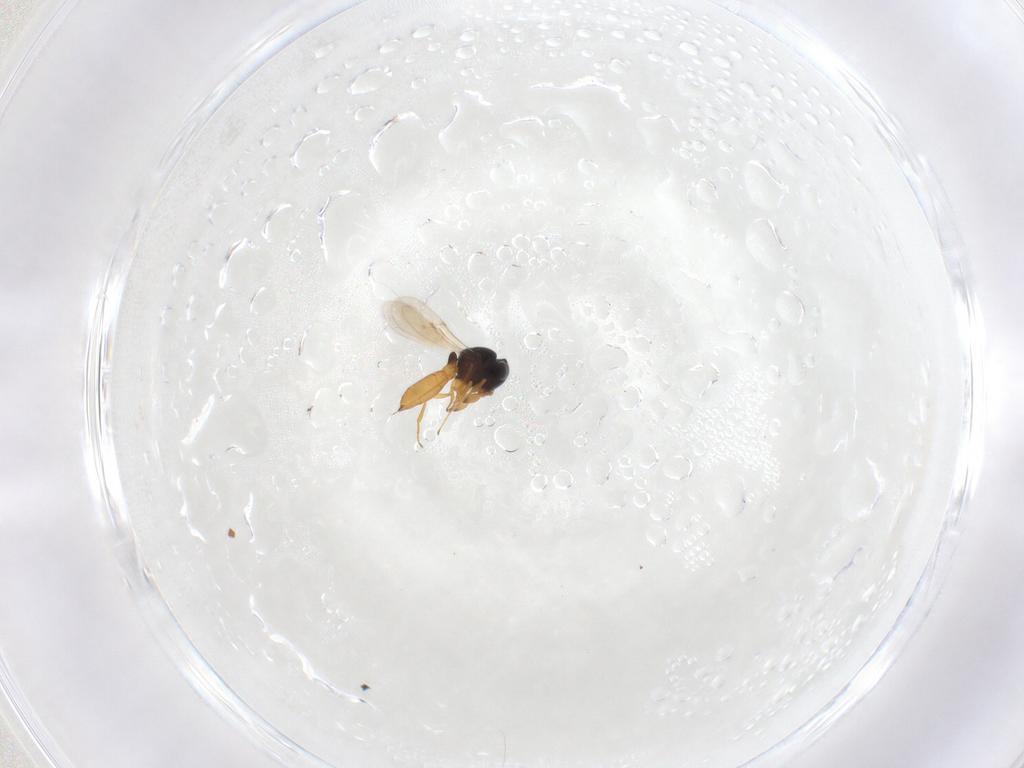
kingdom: Animalia
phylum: Arthropoda
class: Insecta
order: Hymenoptera
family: Scelionidae
